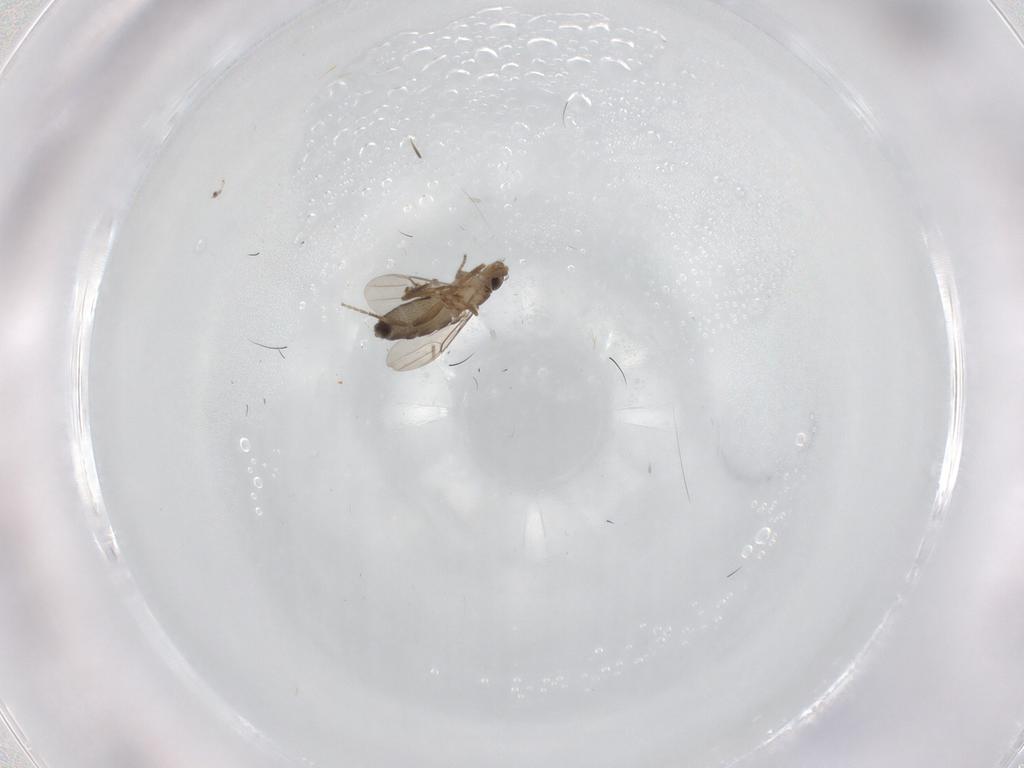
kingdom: Animalia
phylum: Arthropoda
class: Insecta
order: Diptera
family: Phoridae
